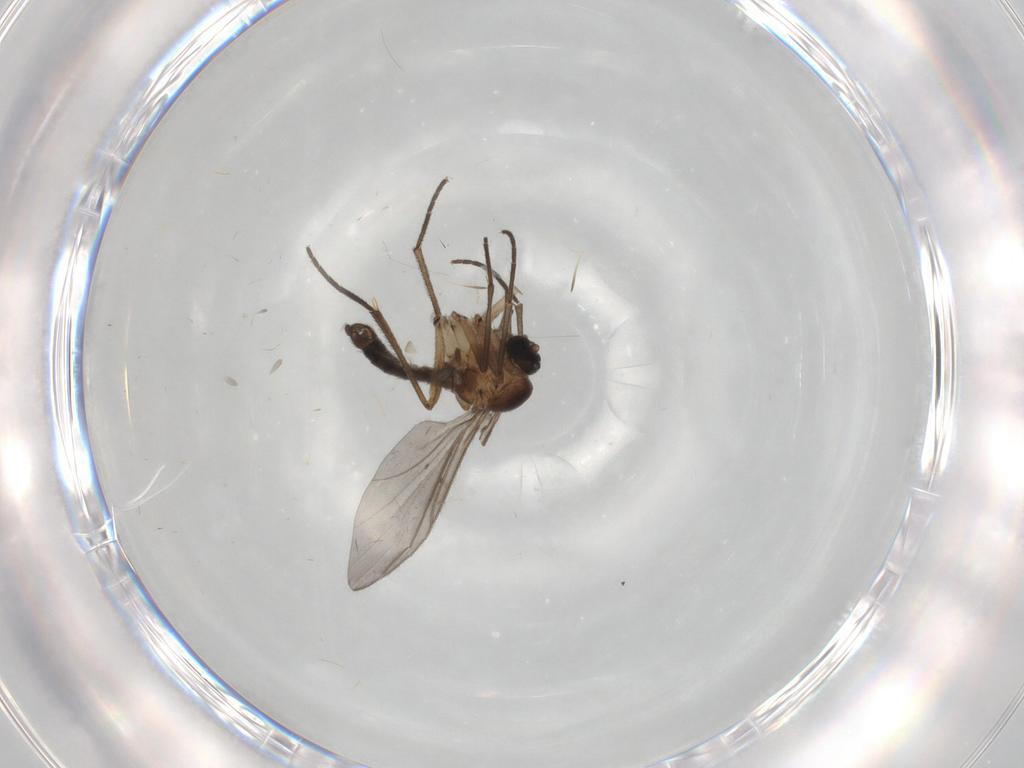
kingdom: Animalia
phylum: Arthropoda
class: Insecta
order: Diptera
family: Sciaridae
